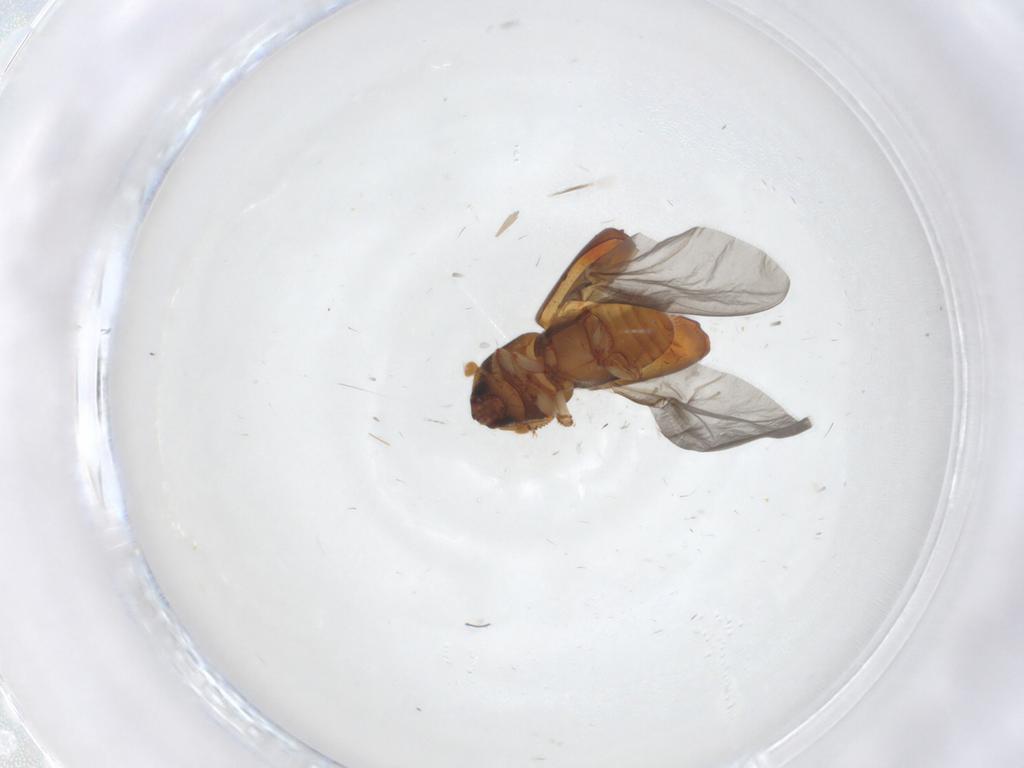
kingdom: Animalia
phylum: Arthropoda
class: Insecta
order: Coleoptera
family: Curculionidae
